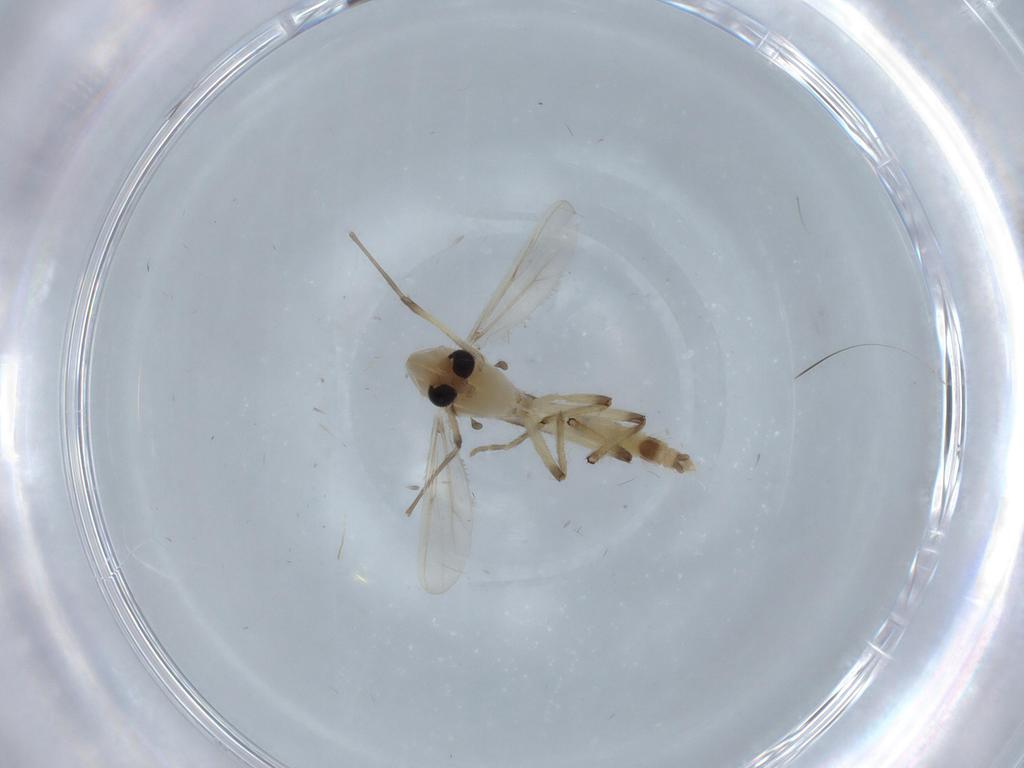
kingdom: Animalia
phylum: Arthropoda
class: Insecta
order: Diptera
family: Chironomidae
